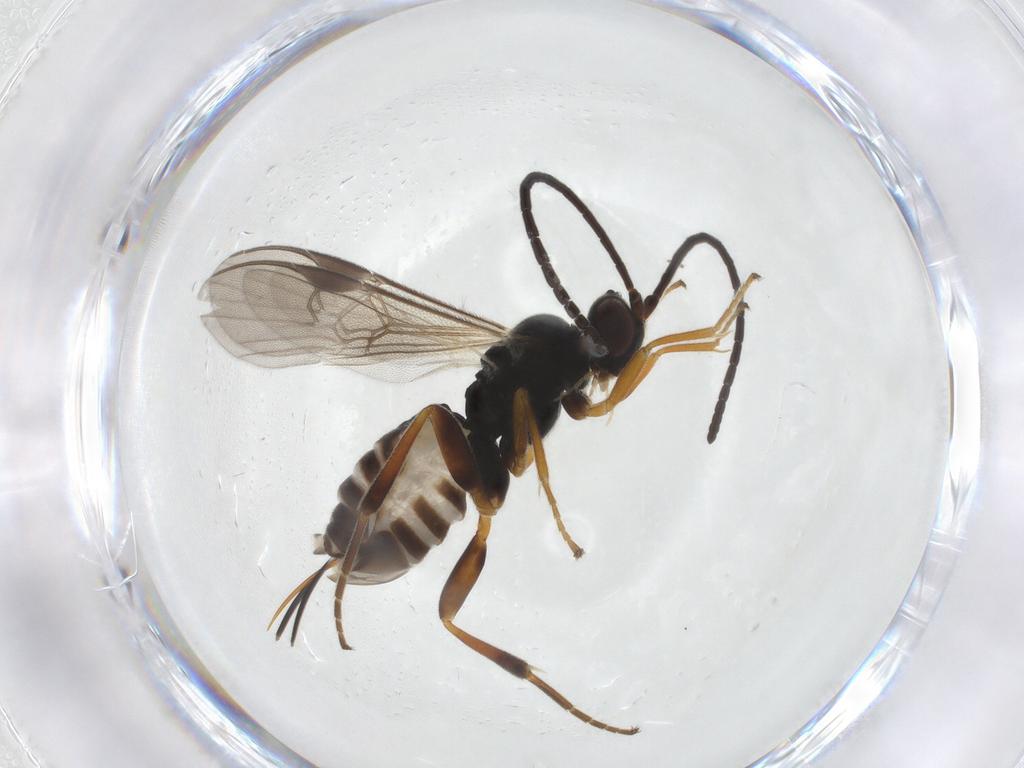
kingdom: Animalia
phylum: Arthropoda
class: Insecta
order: Hymenoptera
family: Braconidae
